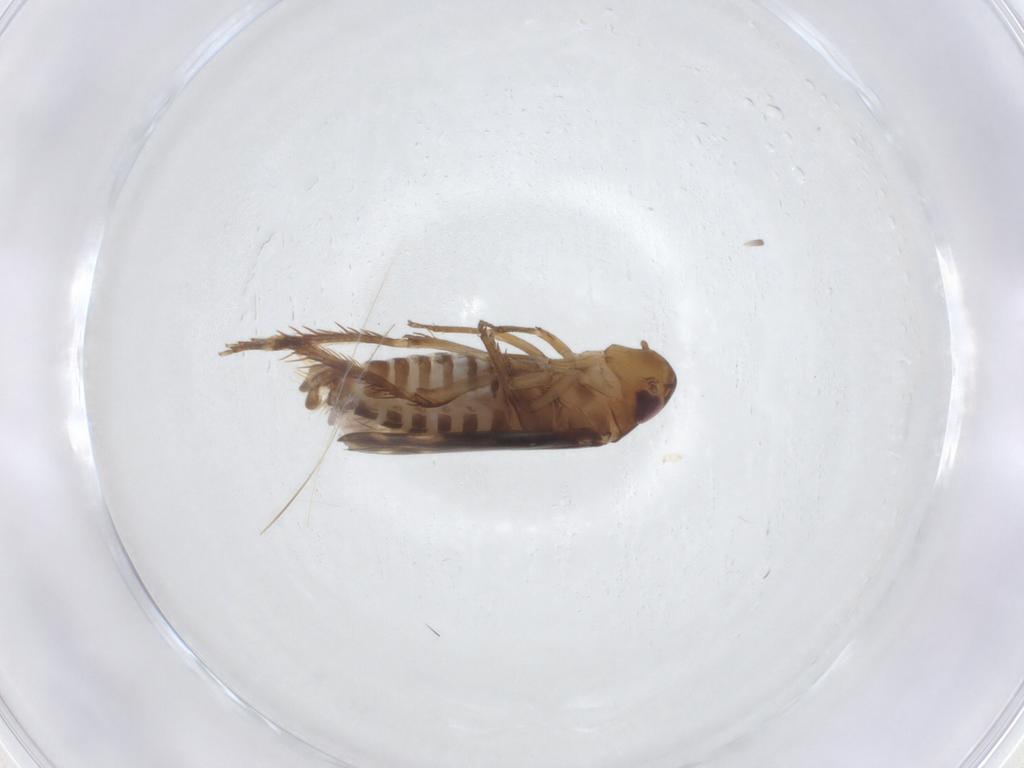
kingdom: Animalia
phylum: Arthropoda
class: Insecta
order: Hemiptera
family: Cicadellidae
